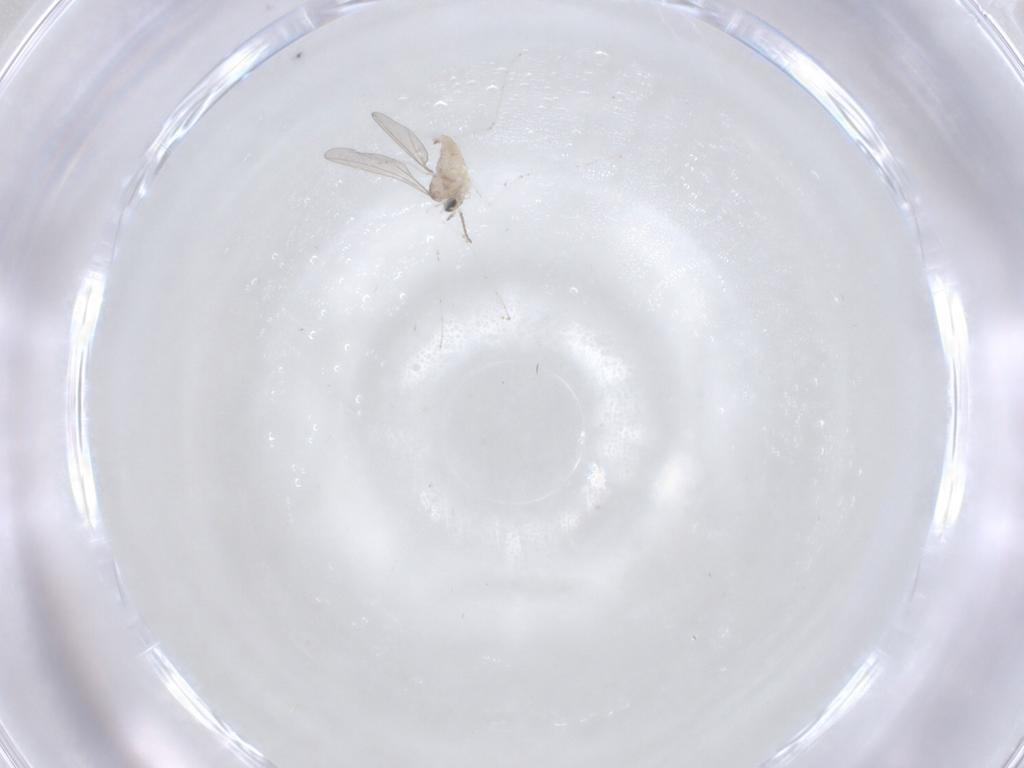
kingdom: Animalia
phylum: Arthropoda
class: Insecta
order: Diptera
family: Cecidomyiidae
